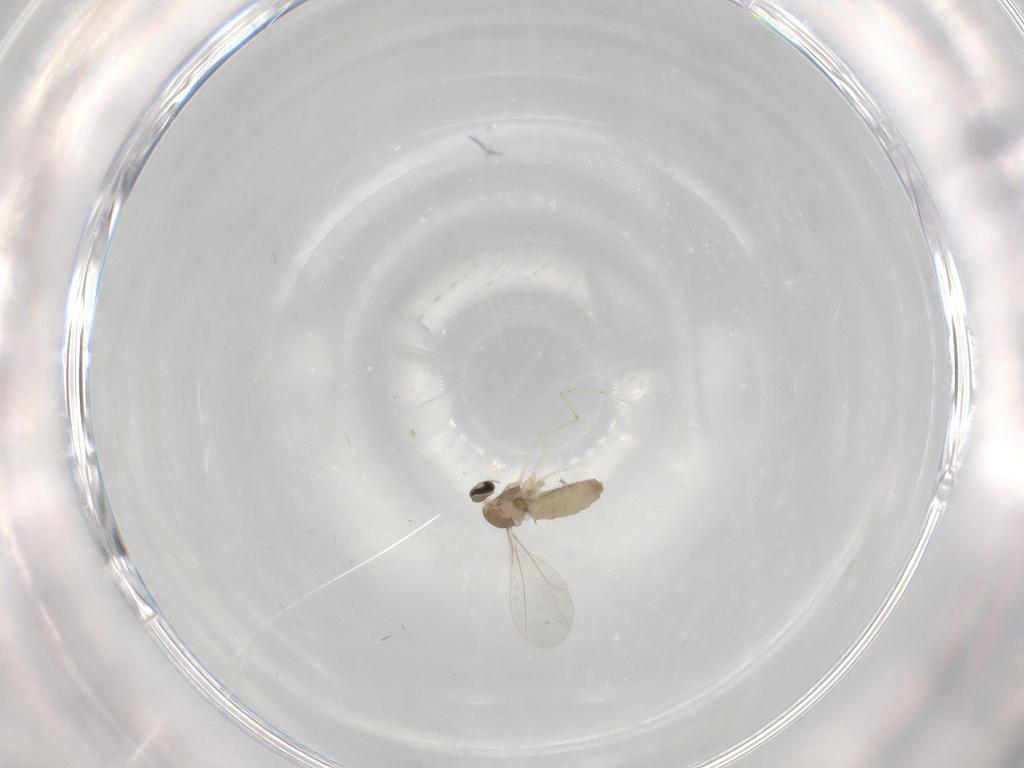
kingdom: Animalia
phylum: Arthropoda
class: Insecta
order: Diptera
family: Cecidomyiidae
